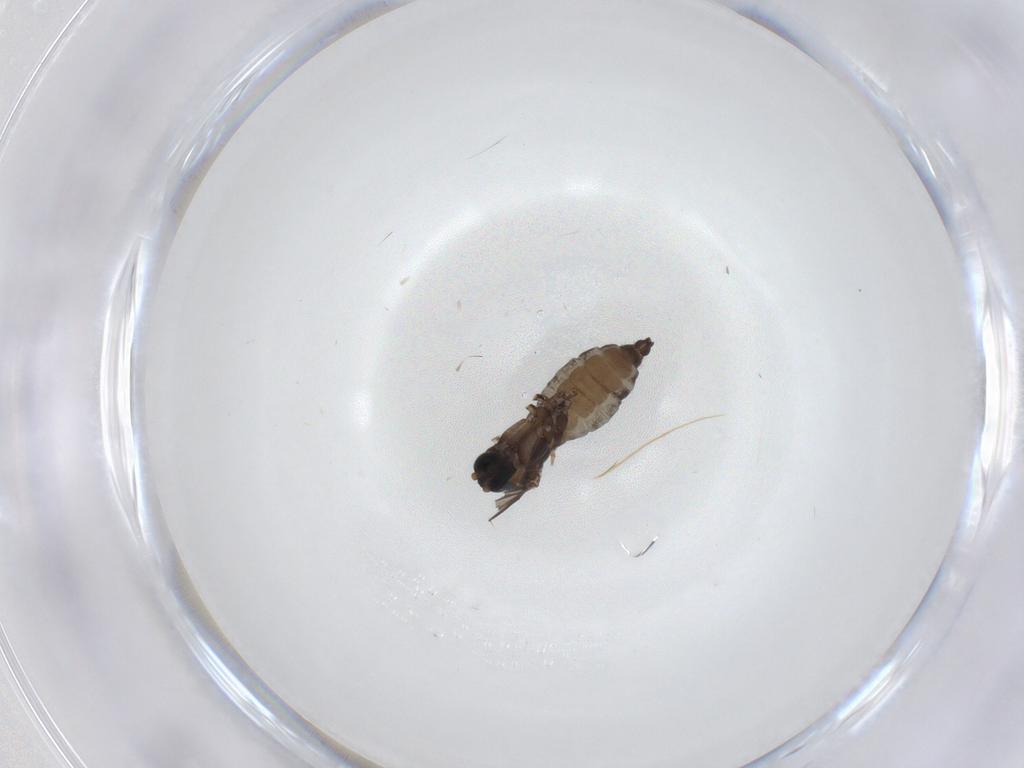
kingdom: Animalia
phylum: Arthropoda
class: Insecta
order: Diptera
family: Sciaridae
